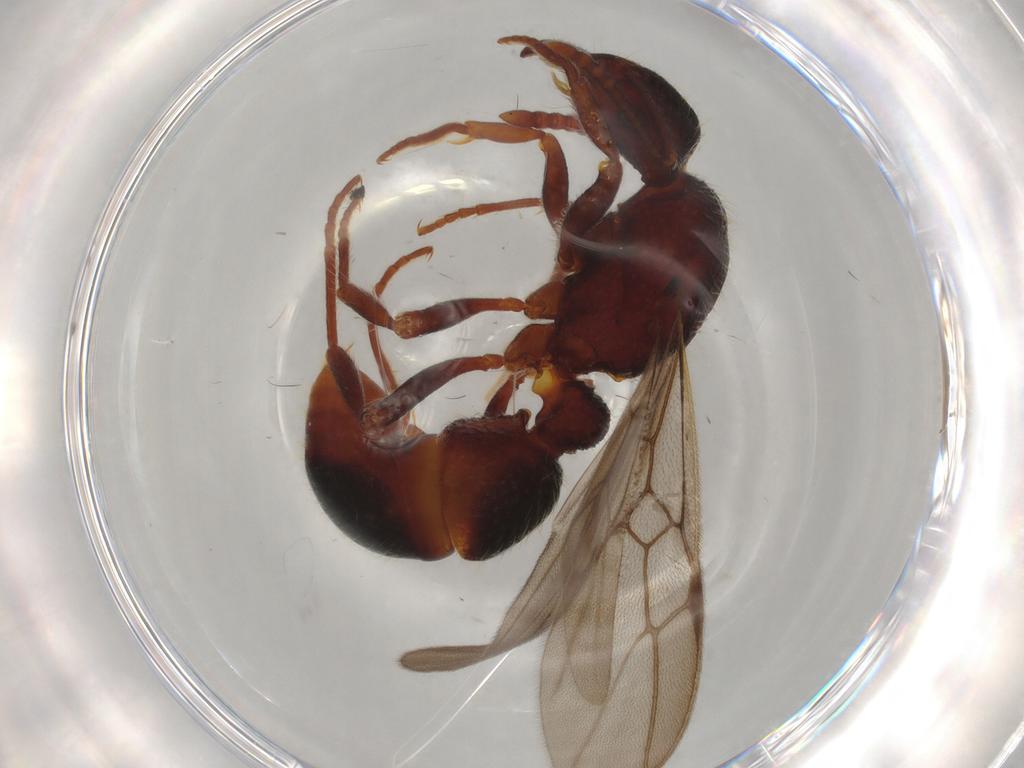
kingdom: Animalia
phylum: Arthropoda
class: Insecta
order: Hymenoptera
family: Formicidae
